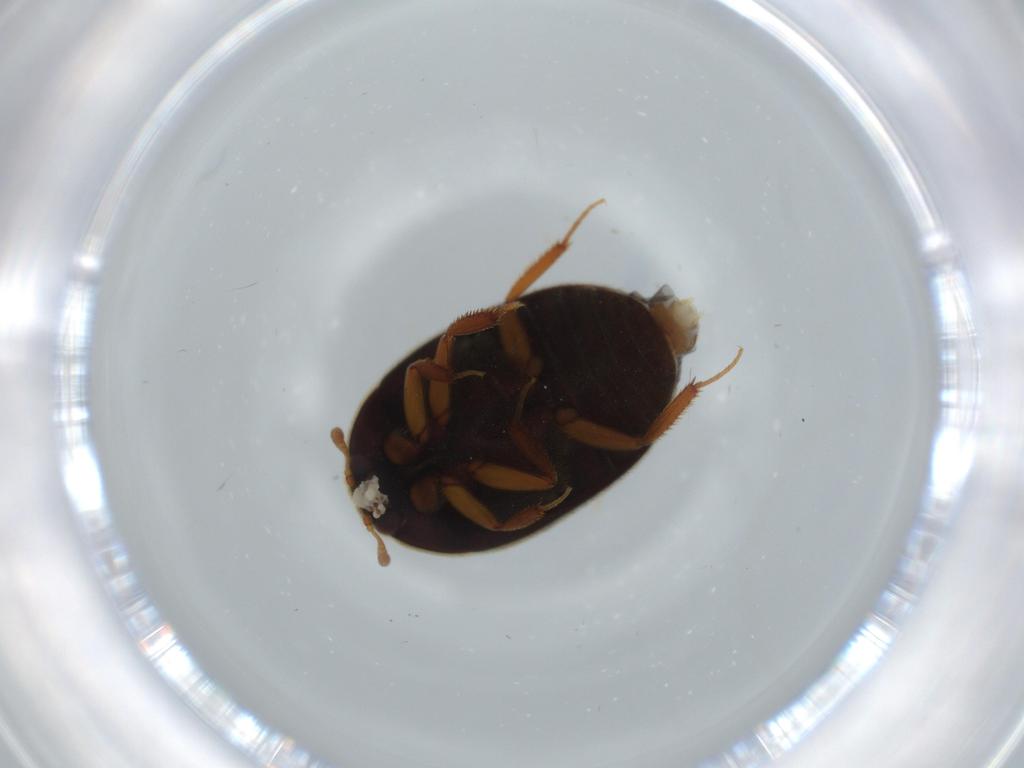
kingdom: Animalia
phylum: Arthropoda
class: Insecta
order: Coleoptera
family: Dermestidae
